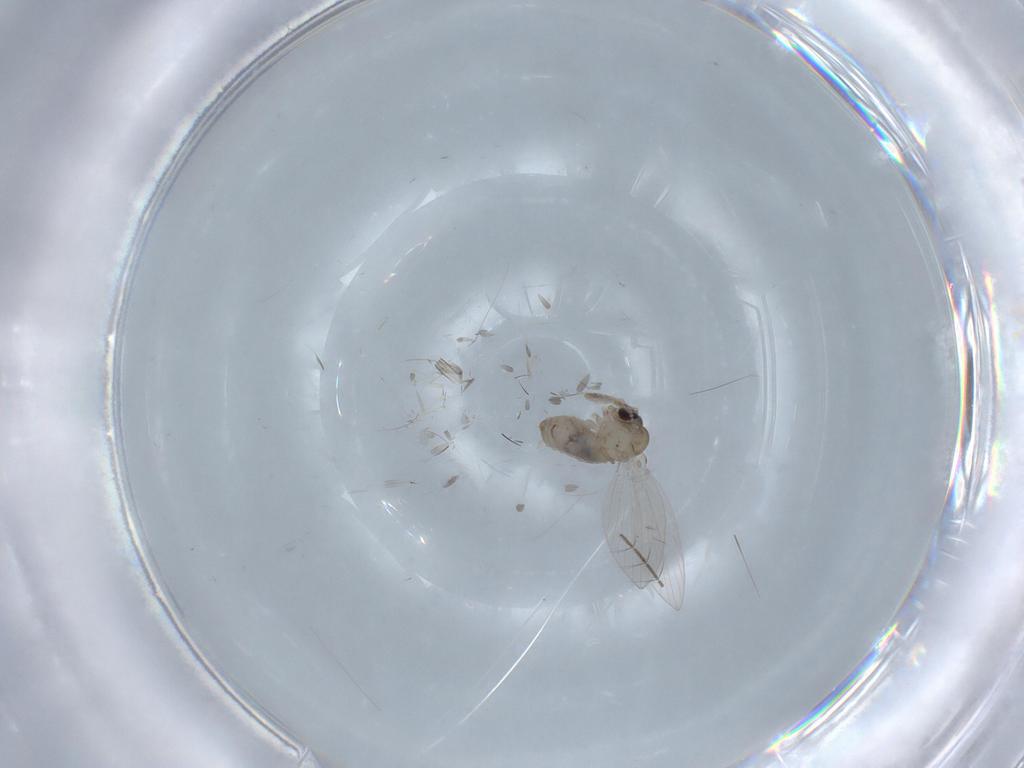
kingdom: Animalia
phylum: Arthropoda
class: Insecta
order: Diptera
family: Psychodidae
